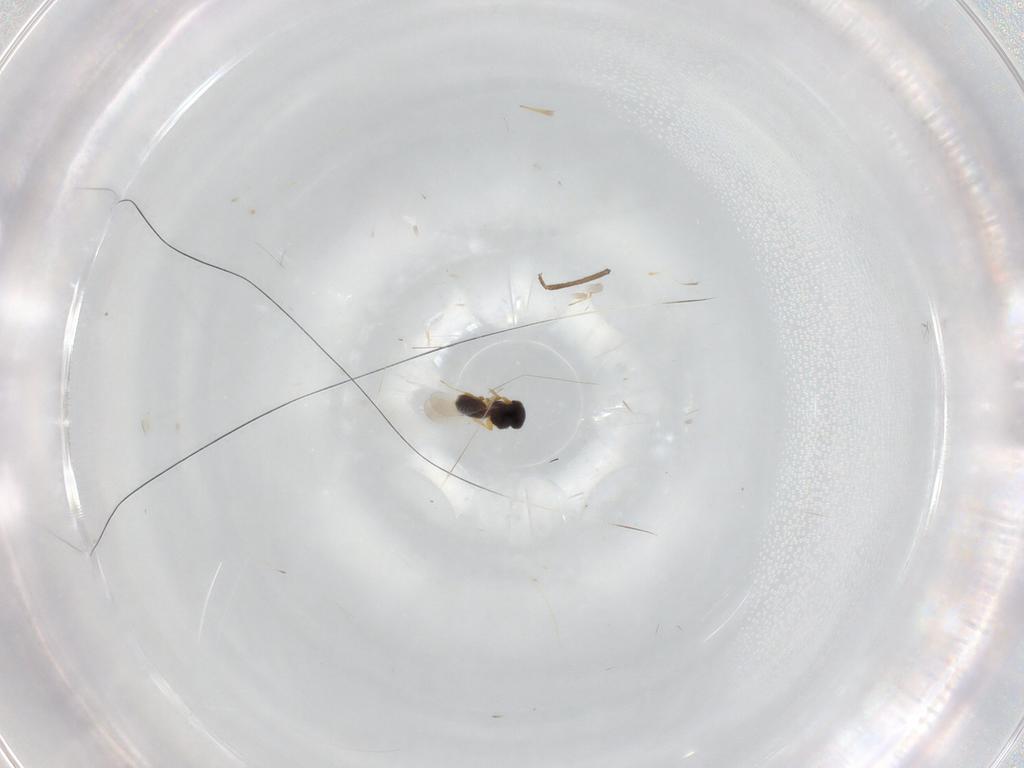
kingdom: Animalia
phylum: Arthropoda
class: Insecta
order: Hymenoptera
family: Platygastridae
